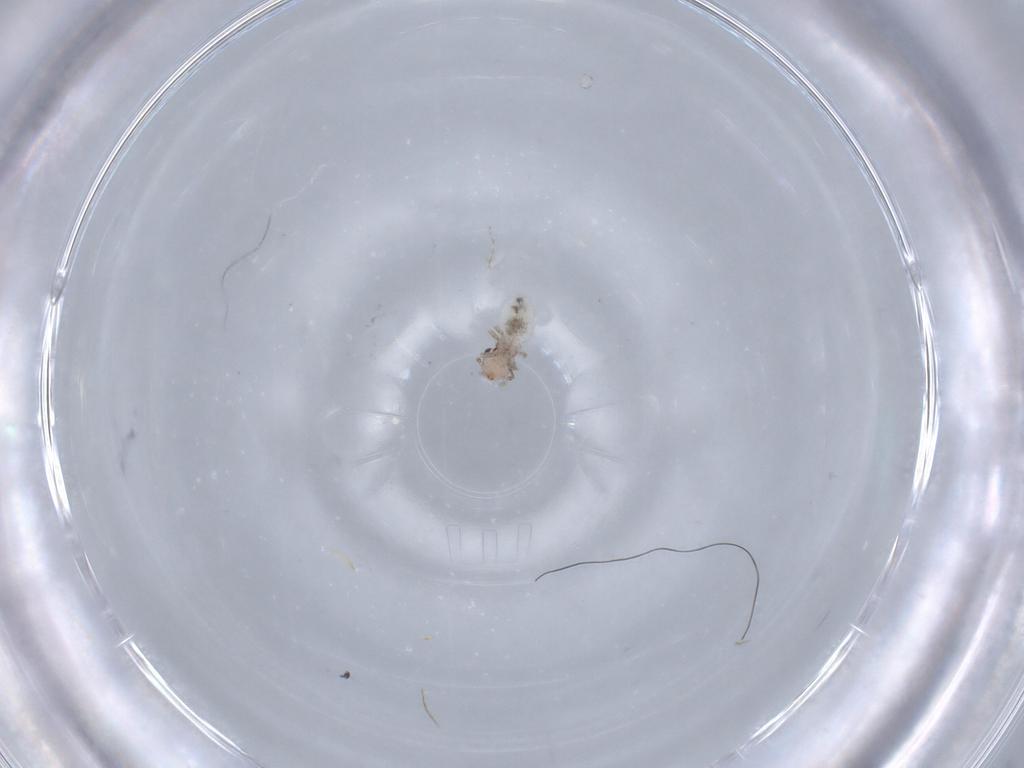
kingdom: Animalia
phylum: Arthropoda
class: Insecta
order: Psocodea
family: Lepidopsocidae
